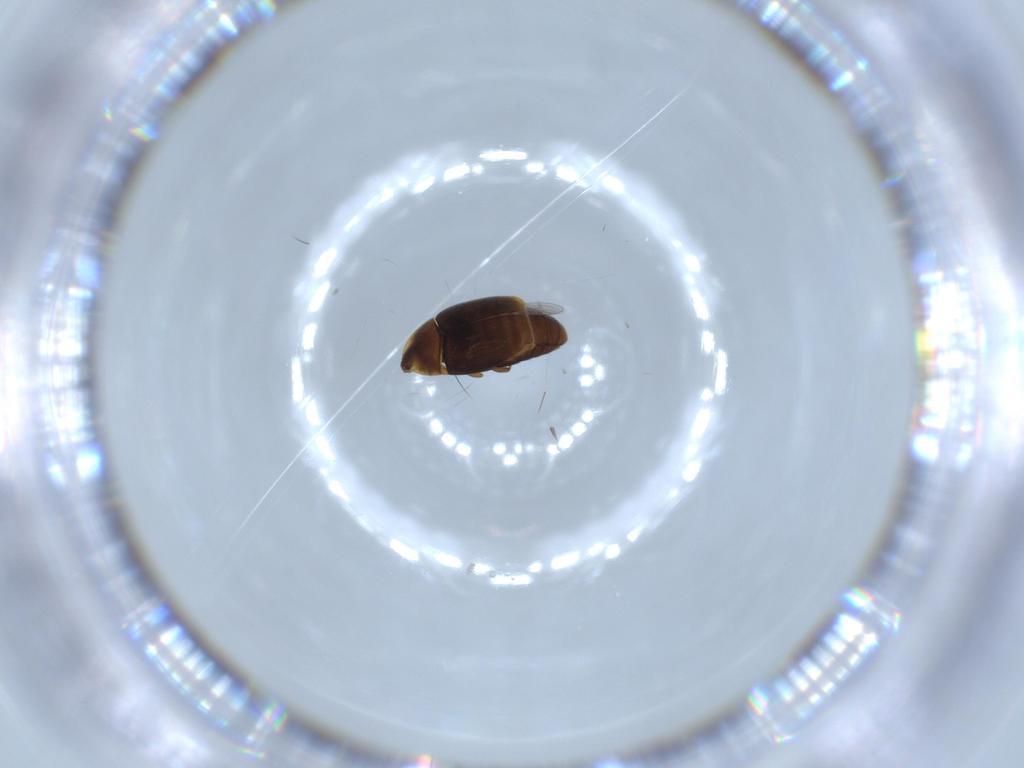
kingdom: Animalia
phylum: Arthropoda
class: Insecta
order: Coleoptera
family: Corylophidae
